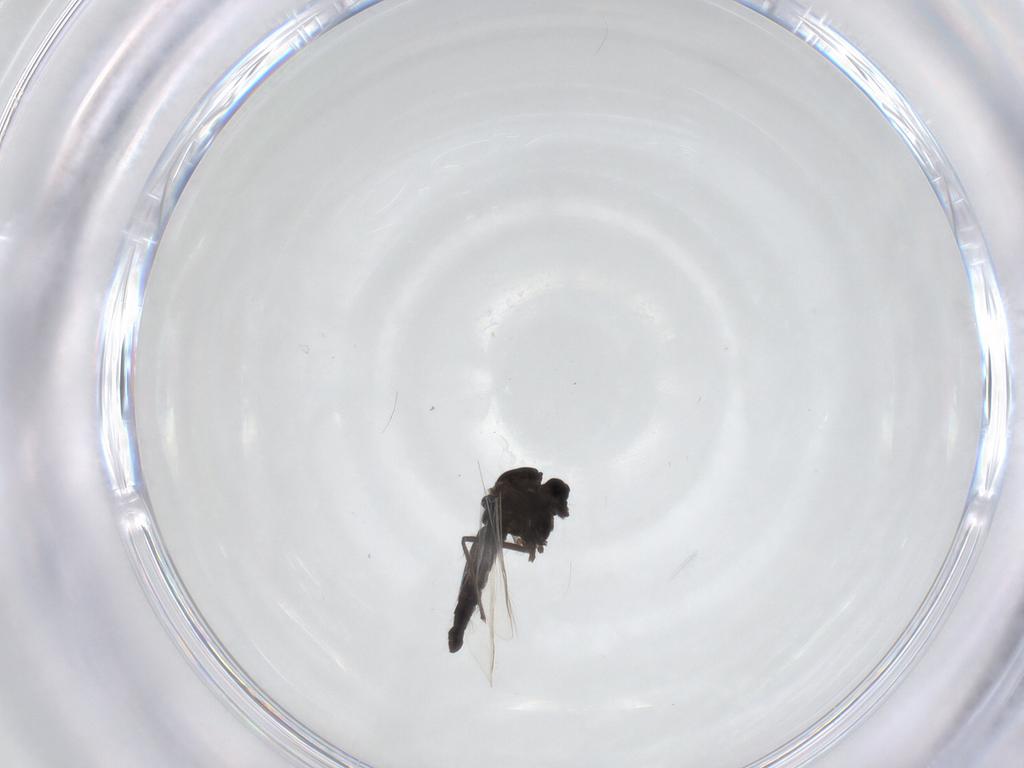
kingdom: Animalia
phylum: Arthropoda
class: Insecta
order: Diptera
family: Chironomidae
